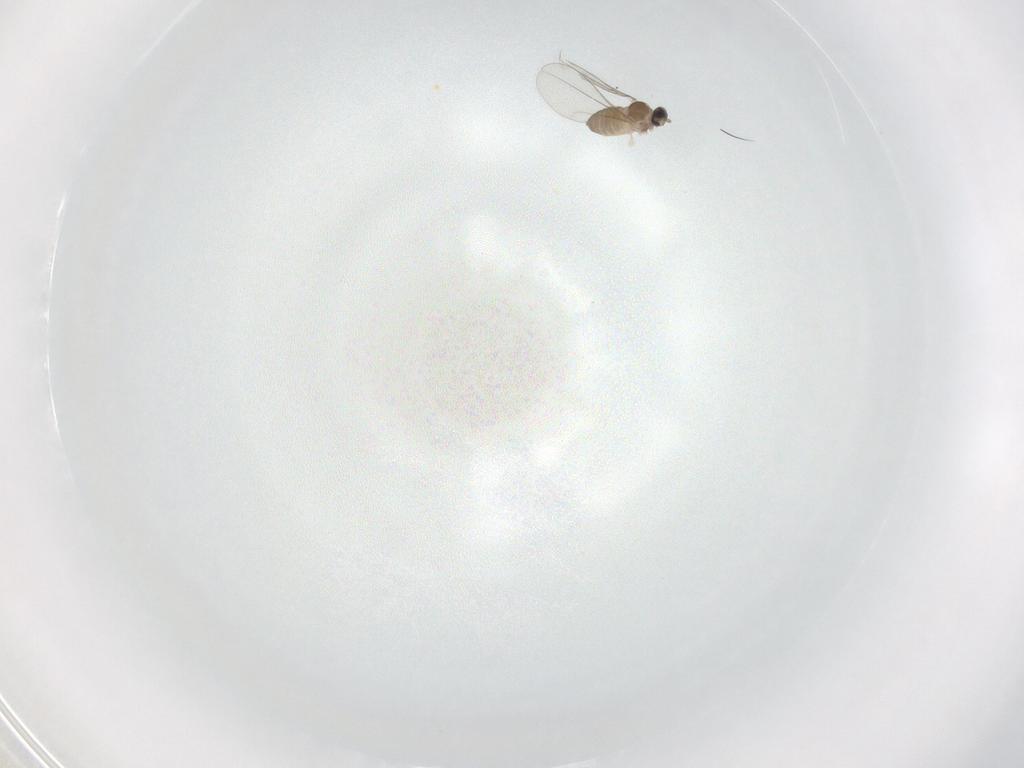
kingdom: Animalia
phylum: Arthropoda
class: Insecta
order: Diptera
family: Cecidomyiidae
